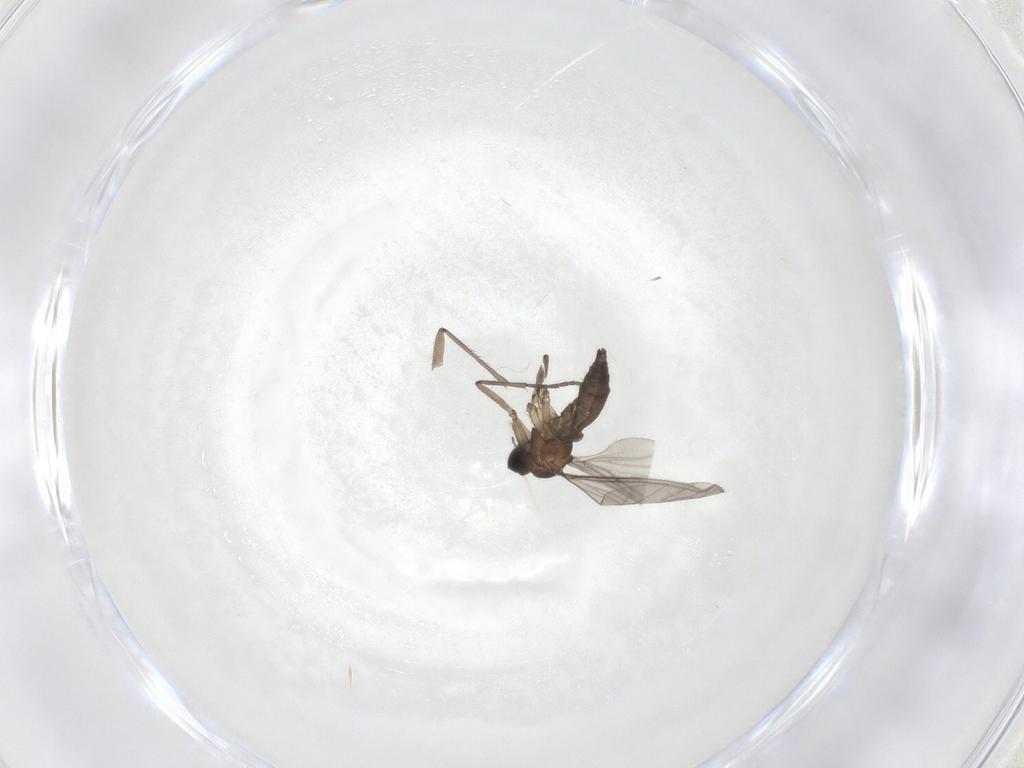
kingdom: Animalia
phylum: Arthropoda
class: Insecta
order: Diptera
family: Sciaridae
